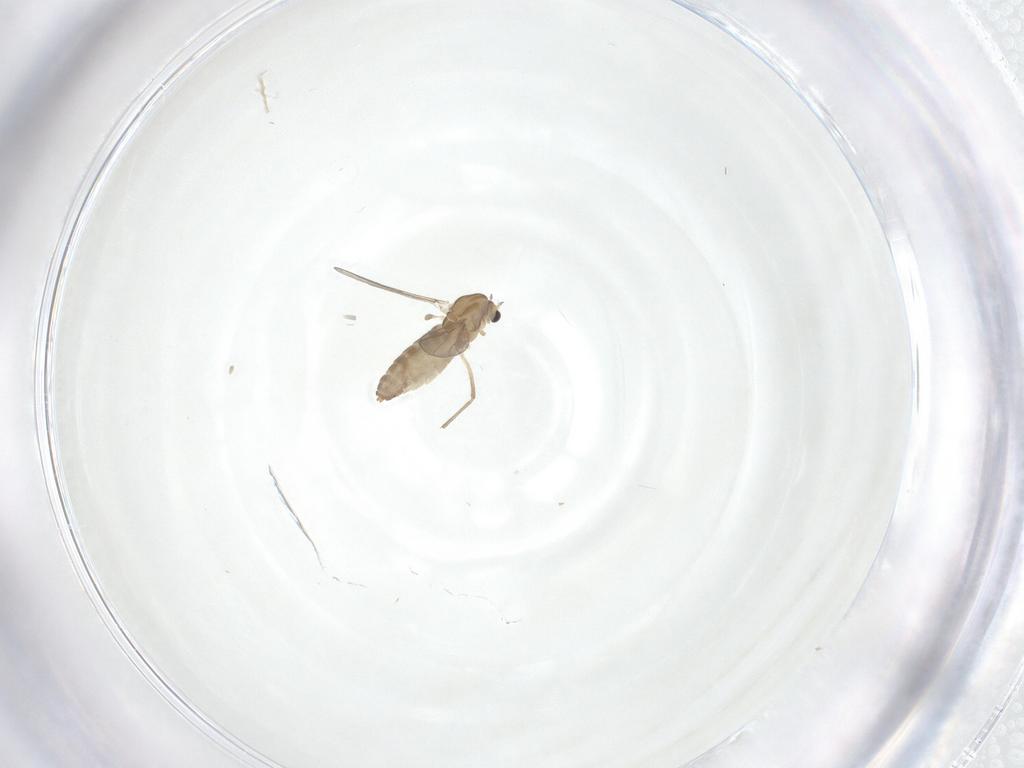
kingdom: Animalia
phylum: Arthropoda
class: Insecta
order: Diptera
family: Chironomidae
